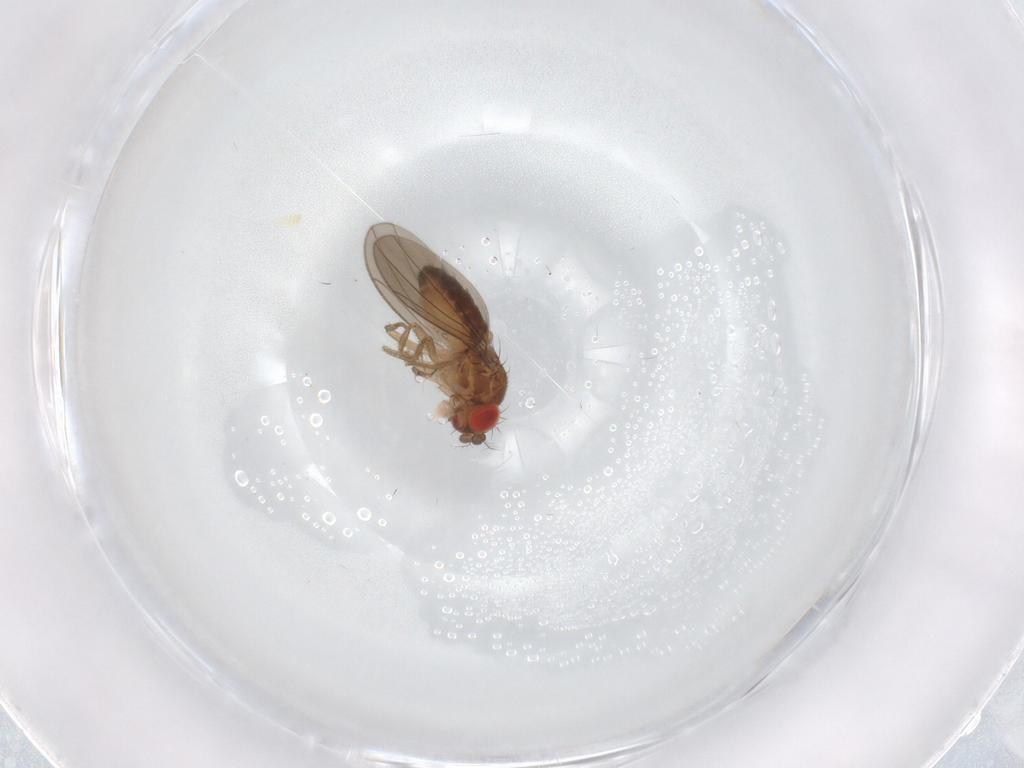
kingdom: Animalia
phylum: Arthropoda
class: Insecta
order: Diptera
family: Drosophilidae
